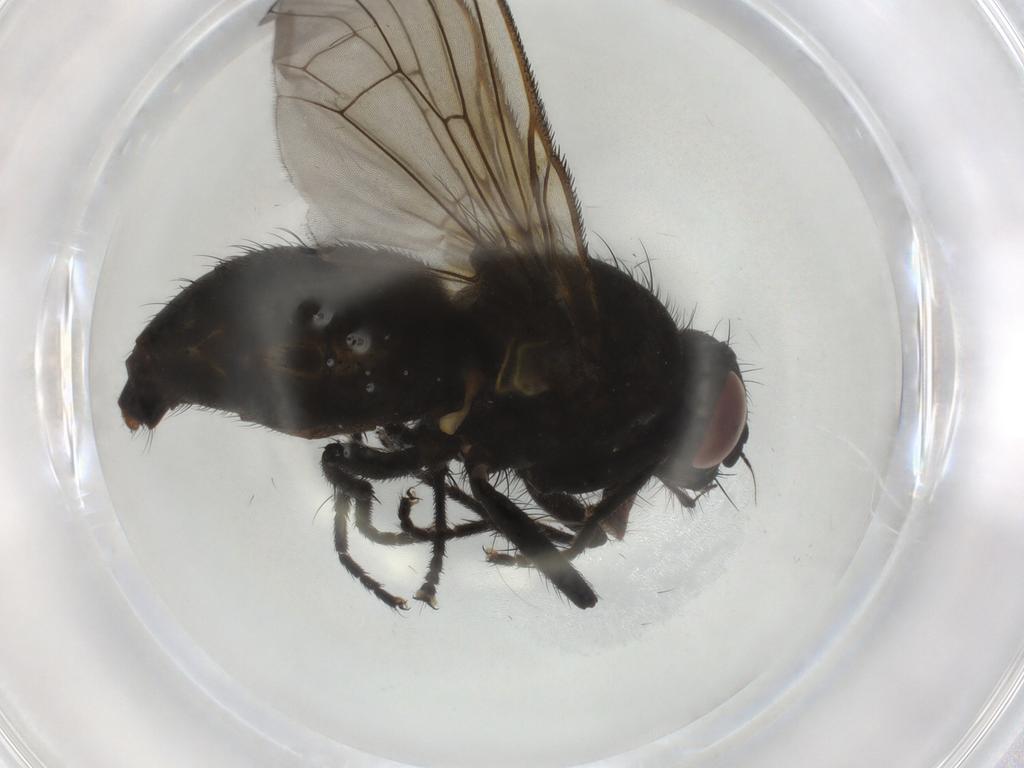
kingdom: Animalia
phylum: Arthropoda
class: Insecta
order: Diptera
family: Muscidae
